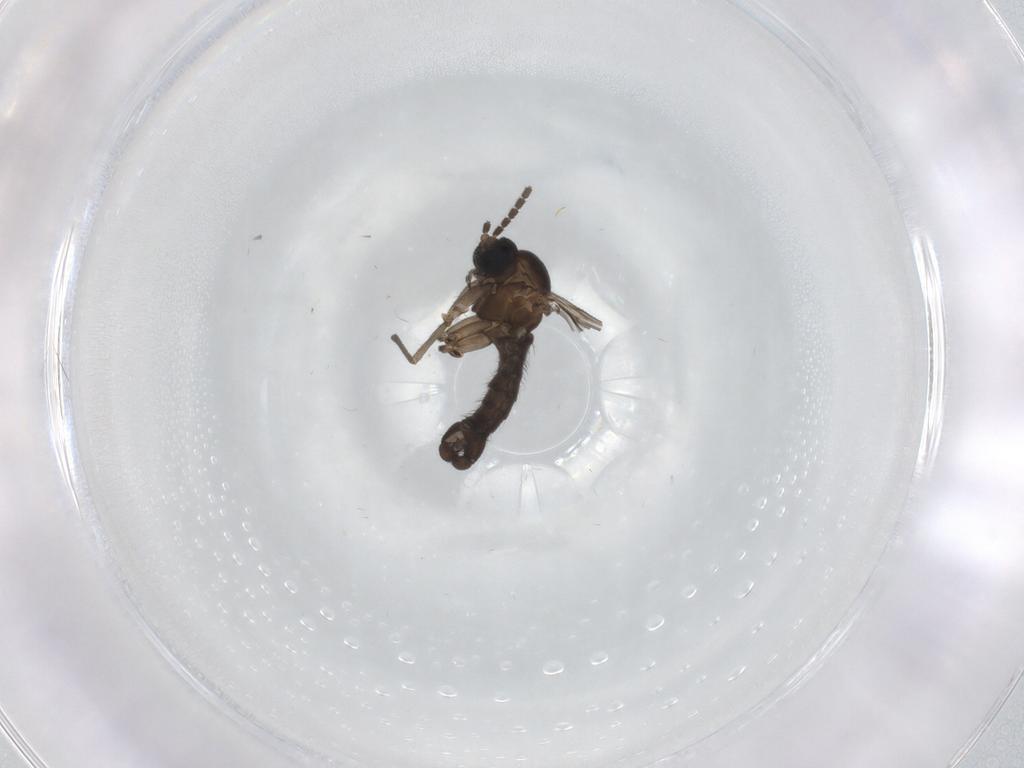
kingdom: Animalia
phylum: Arthropoda
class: Insecta
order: Diptera
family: Sciaridae
